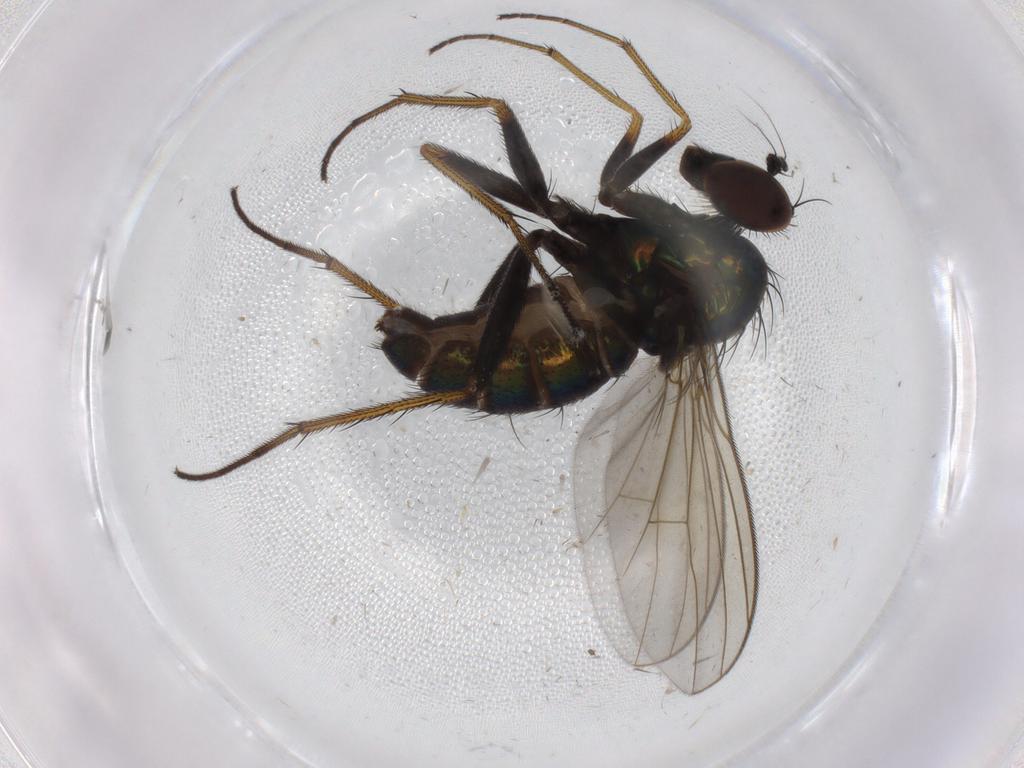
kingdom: Animalia
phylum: Arthropoda
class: Insecta
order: Diptera
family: Dolichopodidae
